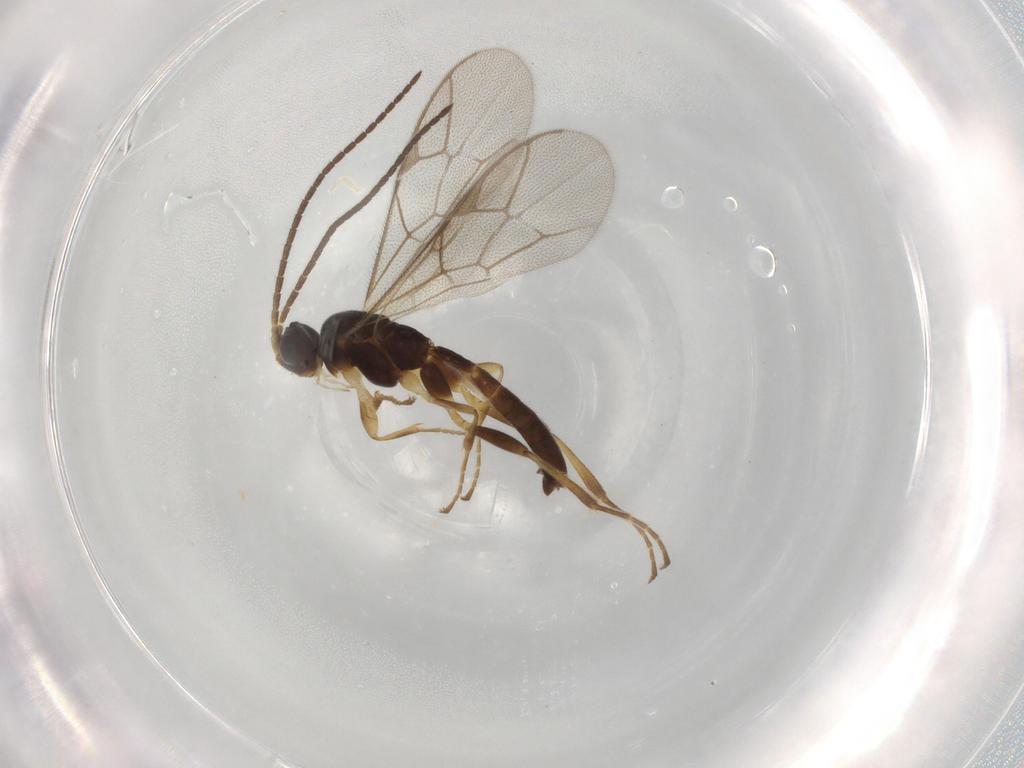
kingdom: Animalia
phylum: Arthropoda
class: Insecta
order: Hymenoptera
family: Ichneumonidae
